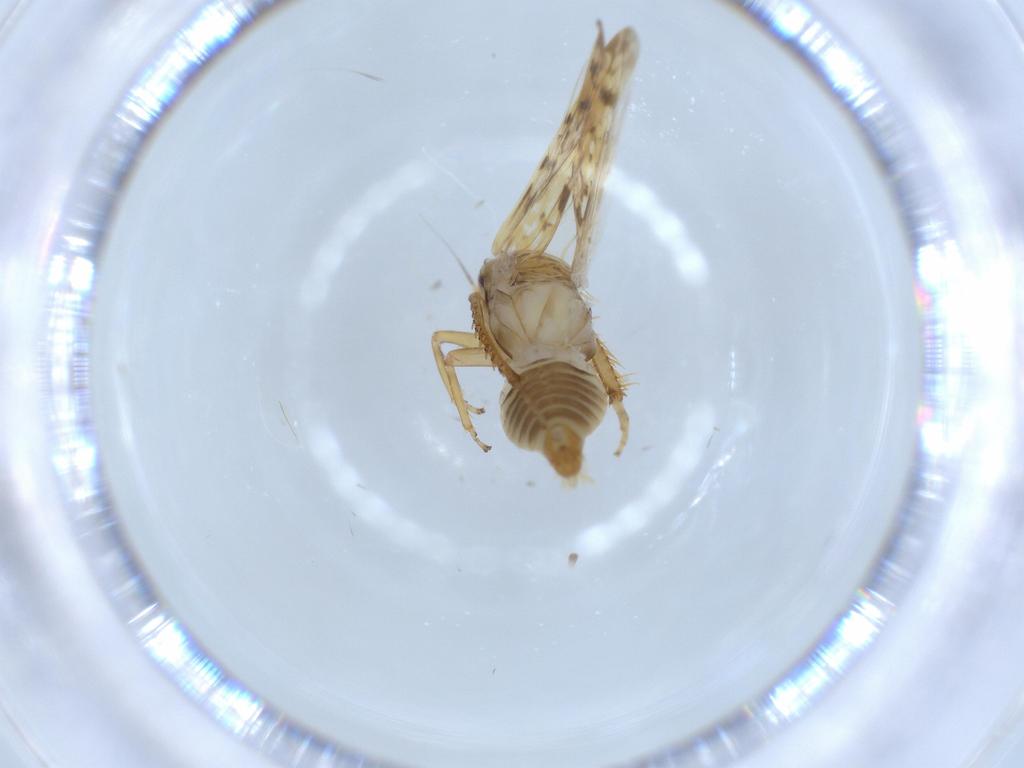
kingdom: Animalia
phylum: Arthropoda
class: Insecta
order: Hemiptera
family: Cicadellidae
